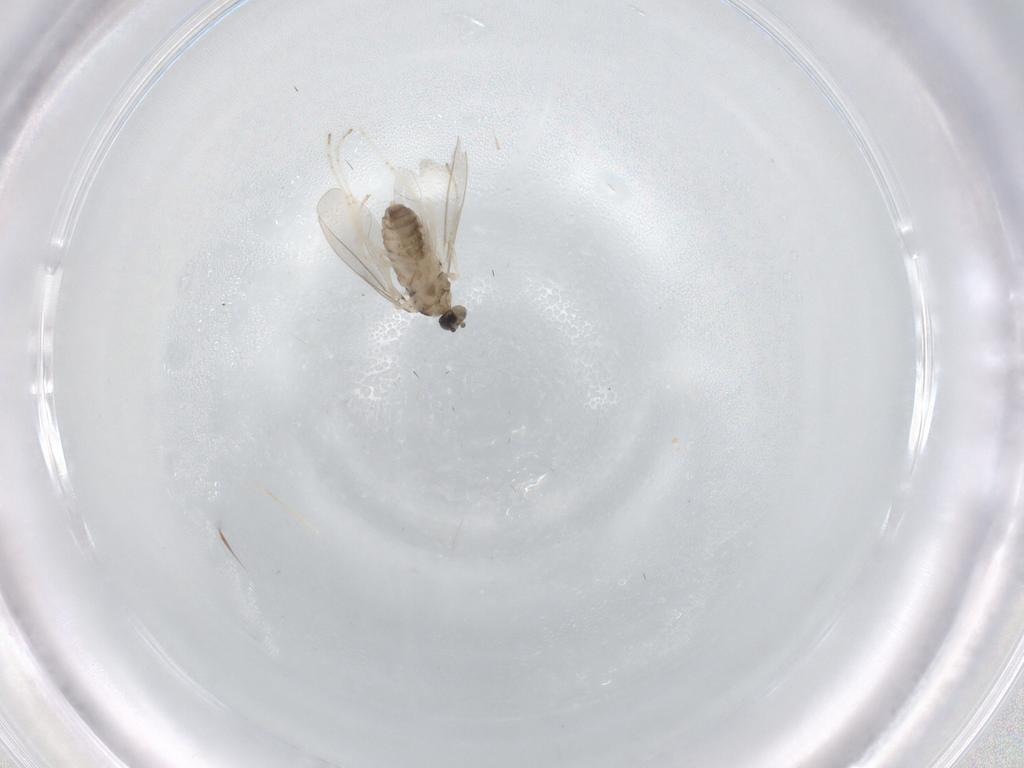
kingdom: Animalia
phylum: Arthropoda
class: Insecta
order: Diptera
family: Cecidomyiidae
